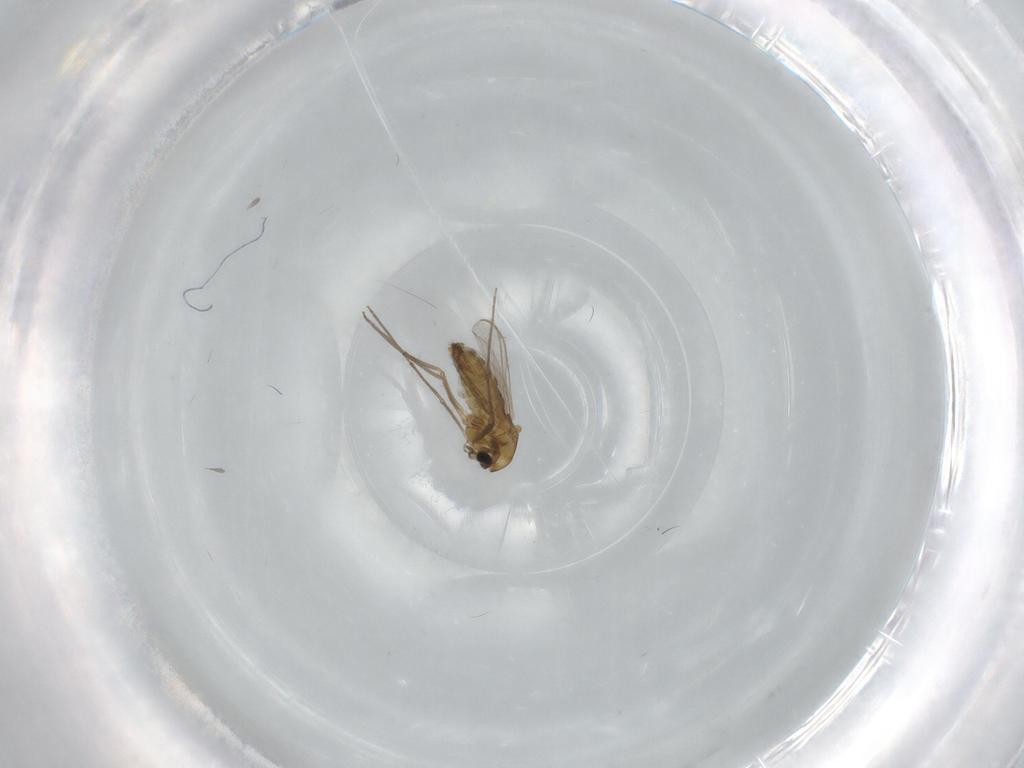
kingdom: Animalia
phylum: Arthropoda
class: Insecta
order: Diptera
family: Chironomidae
